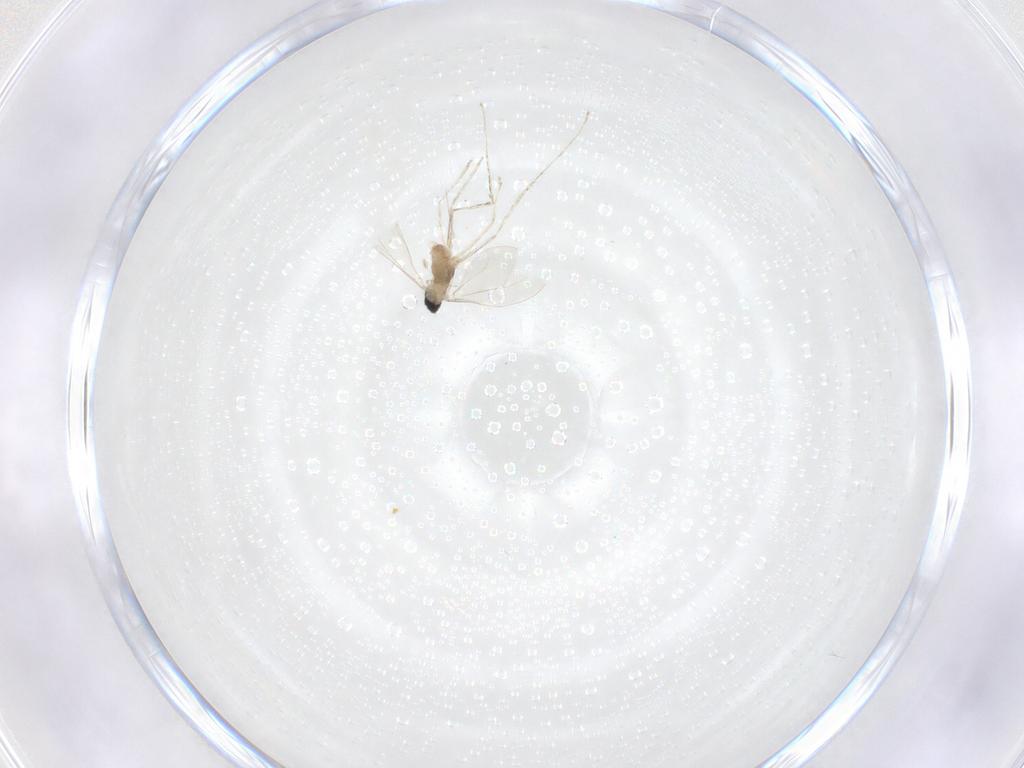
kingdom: Animalia
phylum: Arthropoda
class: Insecta
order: Diptera
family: Cecidomyiidae
